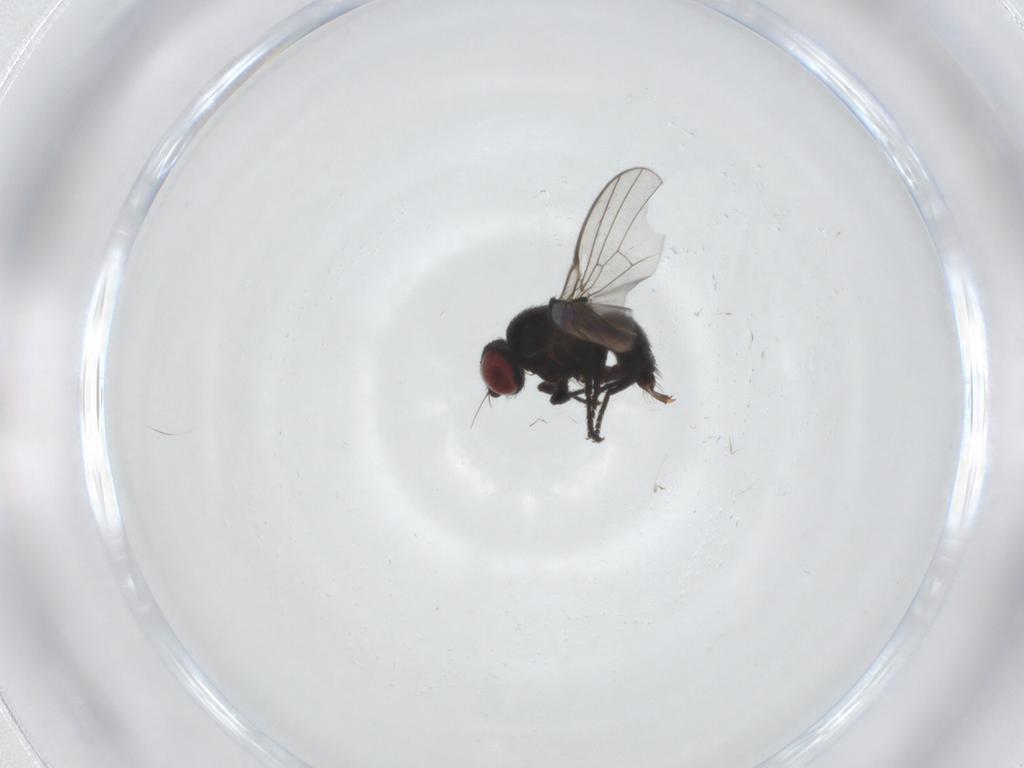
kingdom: Animalia
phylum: Arthropoda
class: Insecta
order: Diptera
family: Agromyzidae
